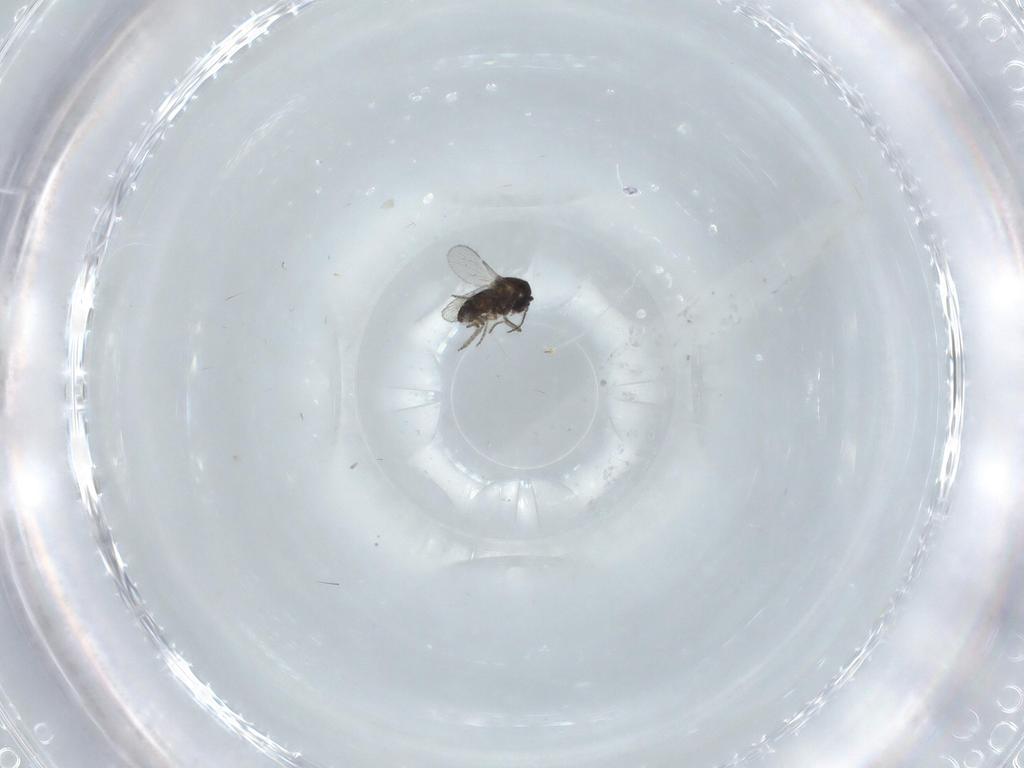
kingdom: Animalia
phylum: Arthropoda
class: Insecta
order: Diptera
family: Ceratopogonidae
